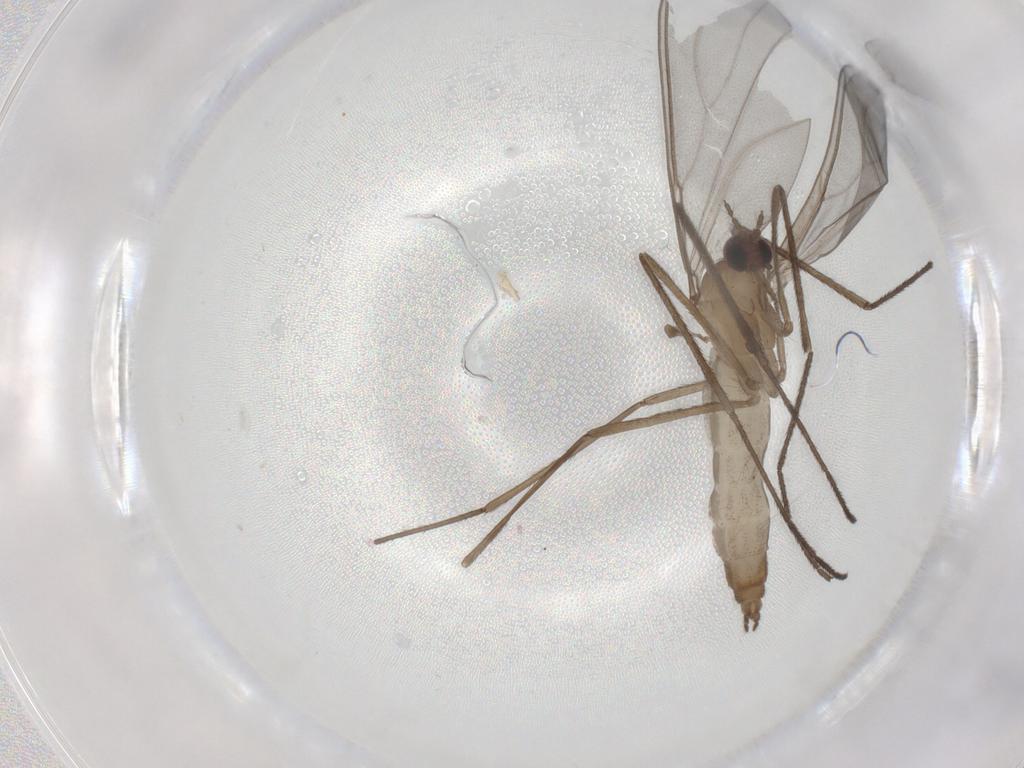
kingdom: Animalia
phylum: Arthropoda
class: Insecta
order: Diptera
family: Cecidomyiidae
